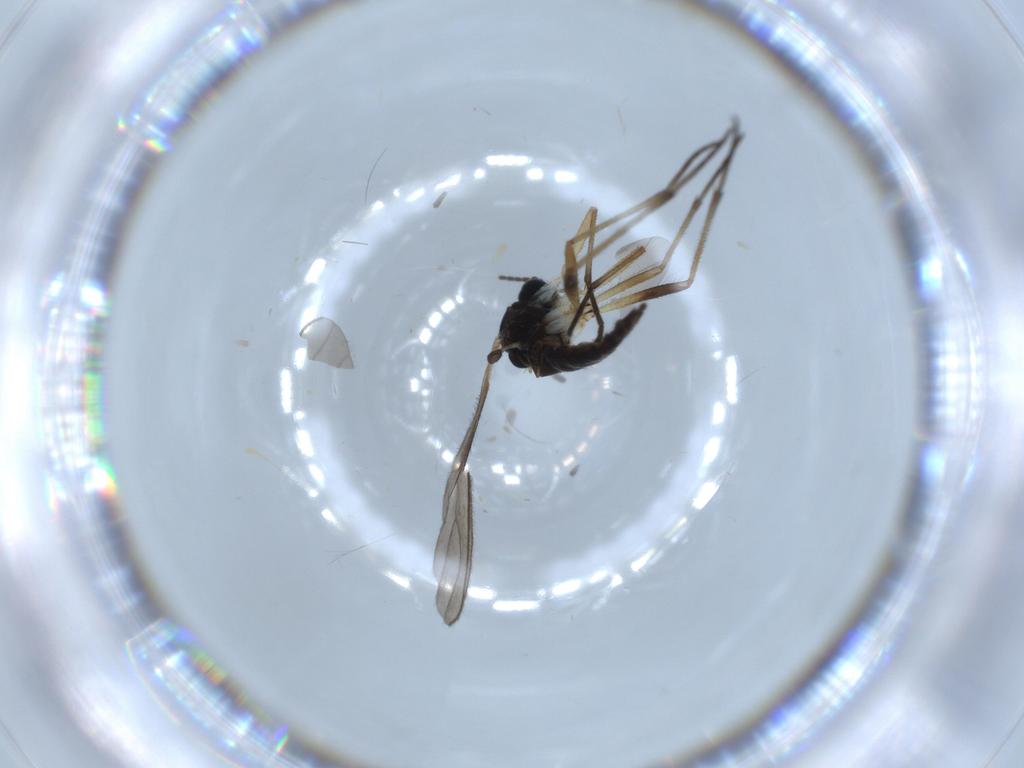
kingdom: Animalia
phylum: Arthropoda
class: Insecta
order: Diptera
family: Sciaridae
